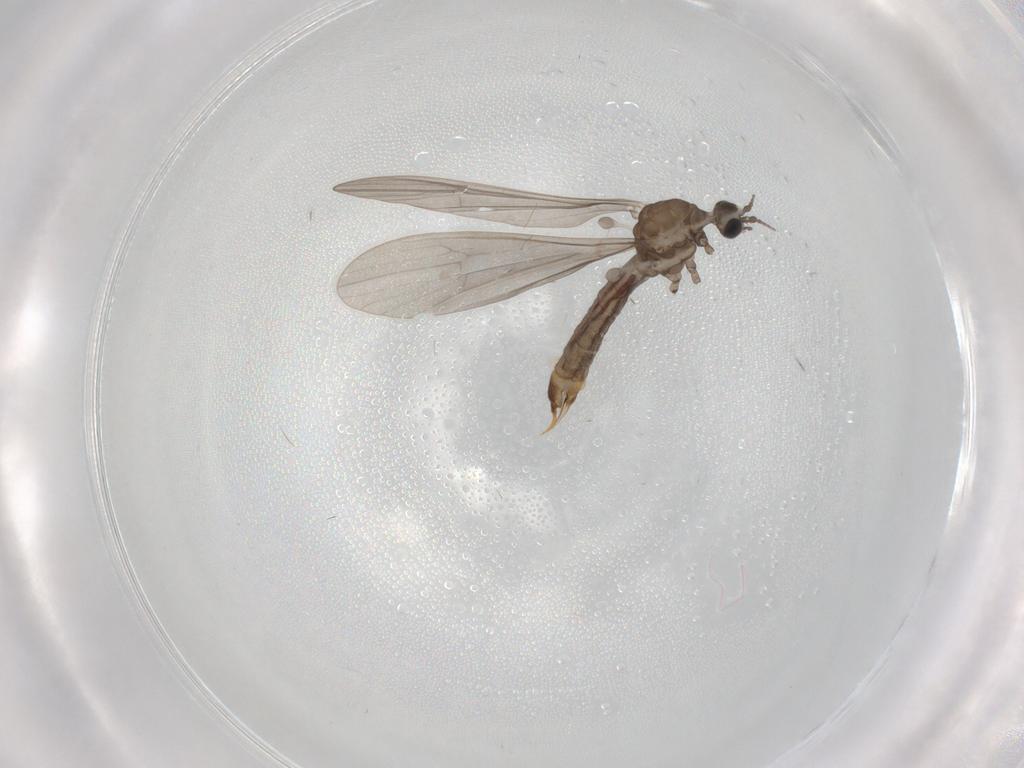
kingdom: Animalia
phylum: Arthropoda
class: Insecta
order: Diptera
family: Limoniidae
